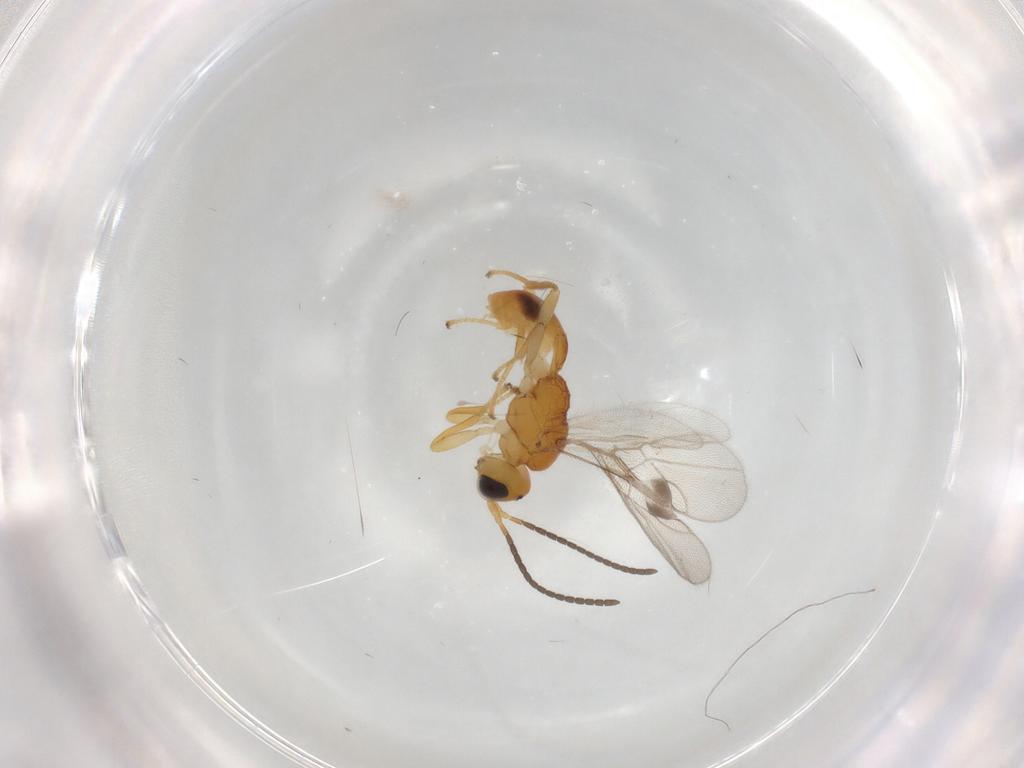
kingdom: Animalia
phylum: Arthropoda
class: Insecta
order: Hymenoptera
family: Braconidae
